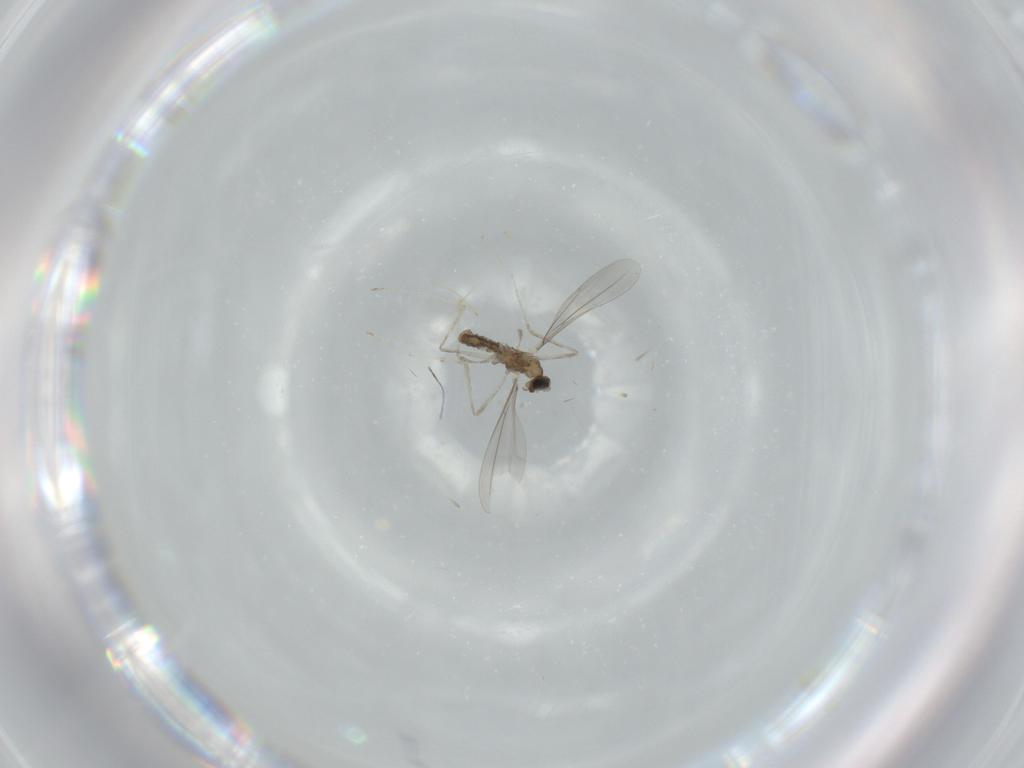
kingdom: Animalia
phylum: Arthropoda
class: Insecta
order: Diptera
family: Cecidomyiidae
